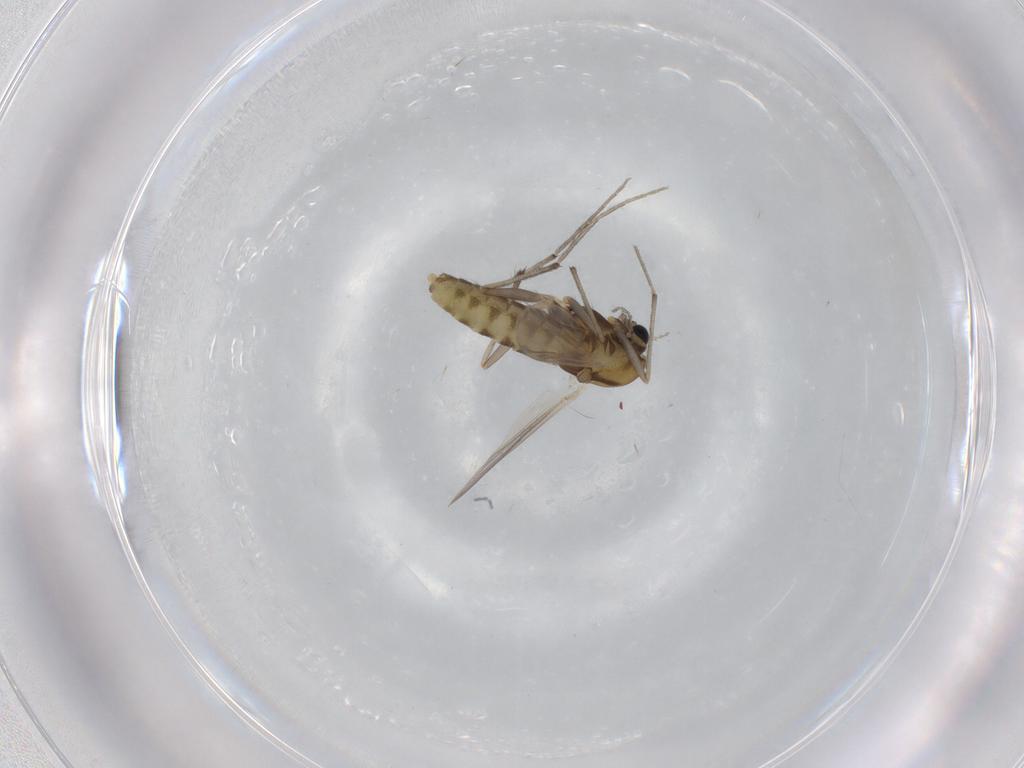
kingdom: Animalia
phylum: Arthropoda
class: Insecta
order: Diptera
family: Chironomidae
